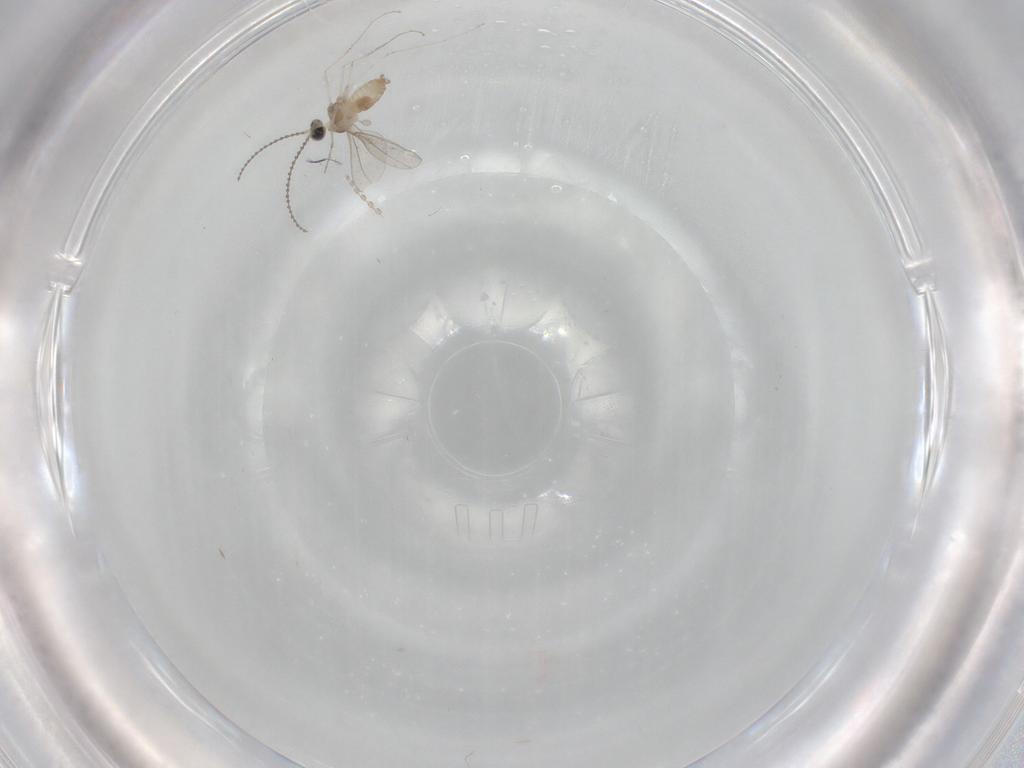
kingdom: Animalia
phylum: Arthropoda
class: Insecta
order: Diptera
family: Cecidomyiidae
